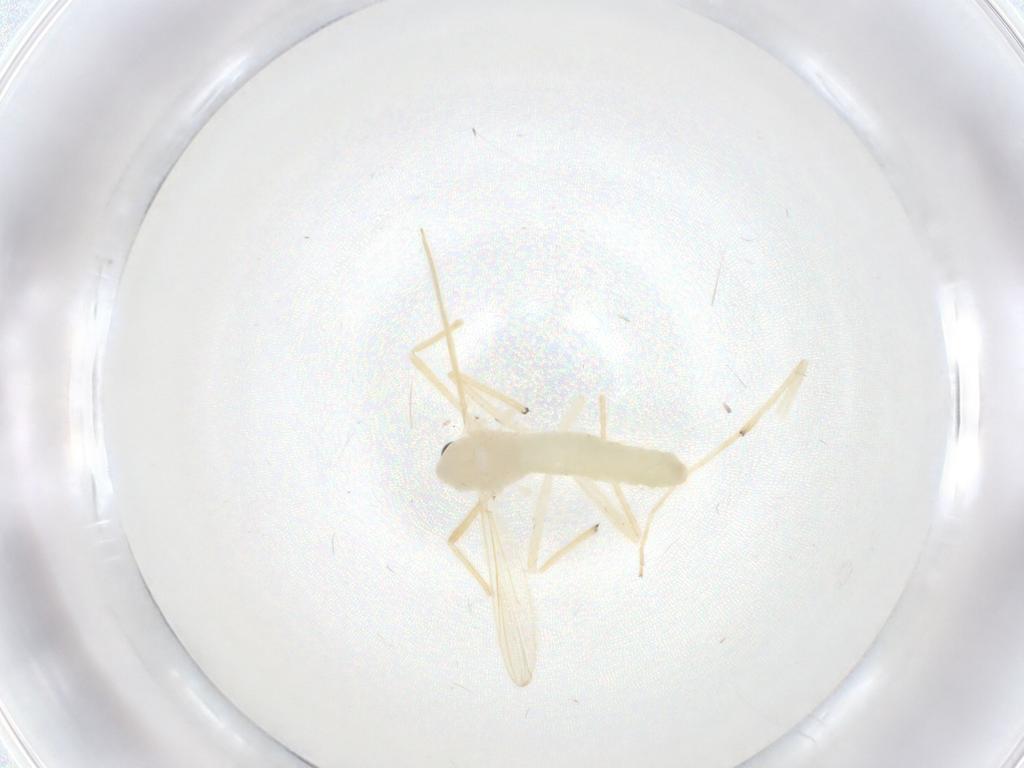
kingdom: Animalia
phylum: Arthropoda
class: Insecta
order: Diptera
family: Chironomidae
